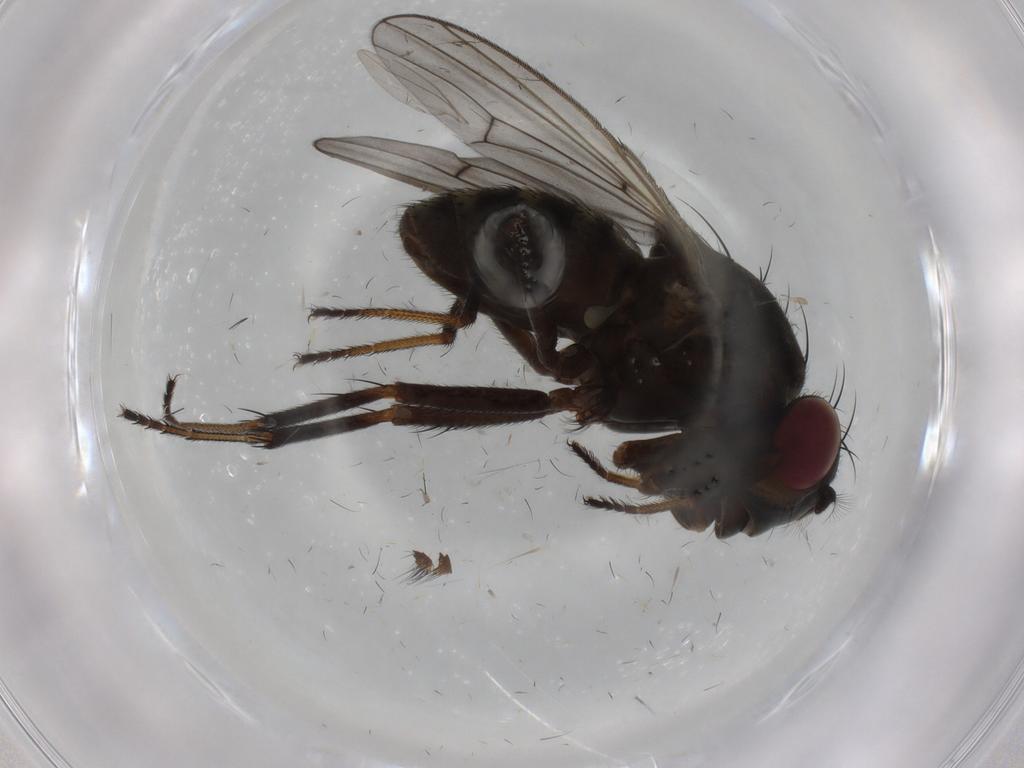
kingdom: Animalia
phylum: Arthropoda
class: Insecta
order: Diptera
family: Ephydridae
